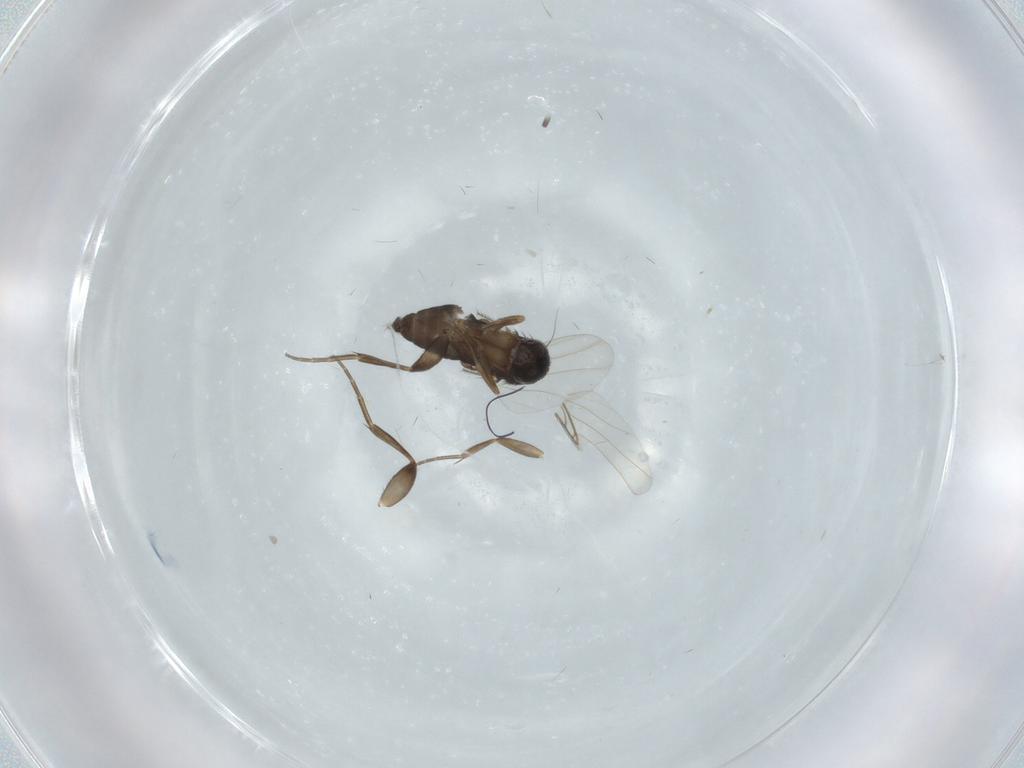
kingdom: Animalia
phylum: Arthropoda
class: Insecta
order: Diptera
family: Phoridae
